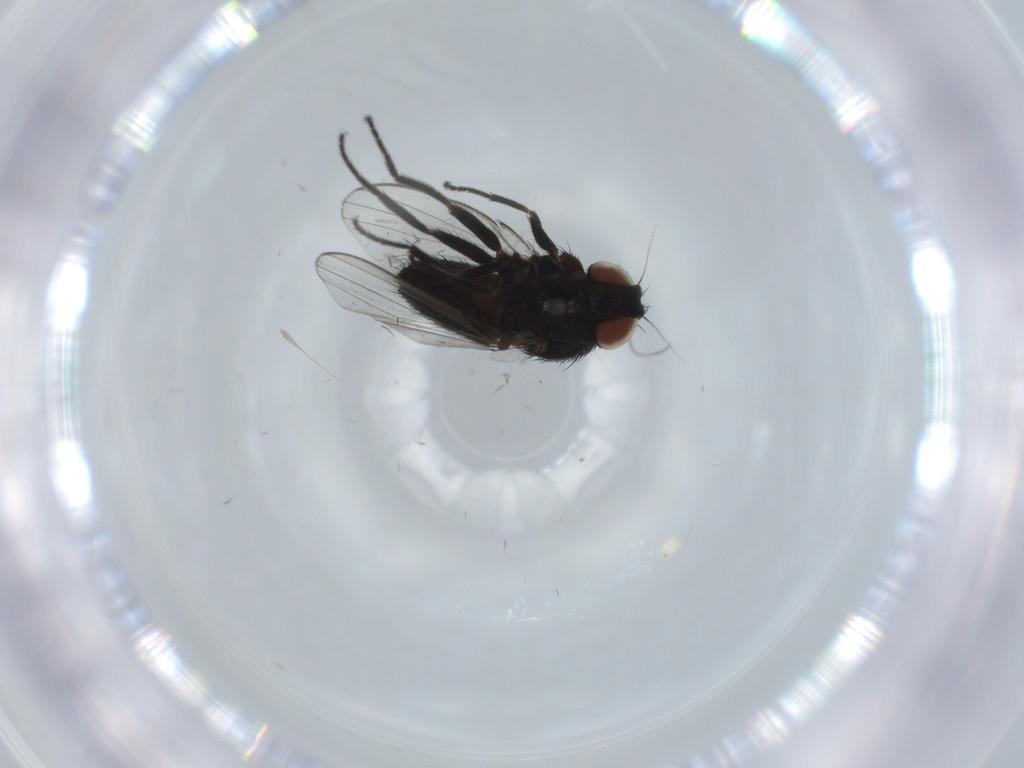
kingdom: Animalia
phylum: Arthropoda
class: Insecta
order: Diptera
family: Milichiidae
